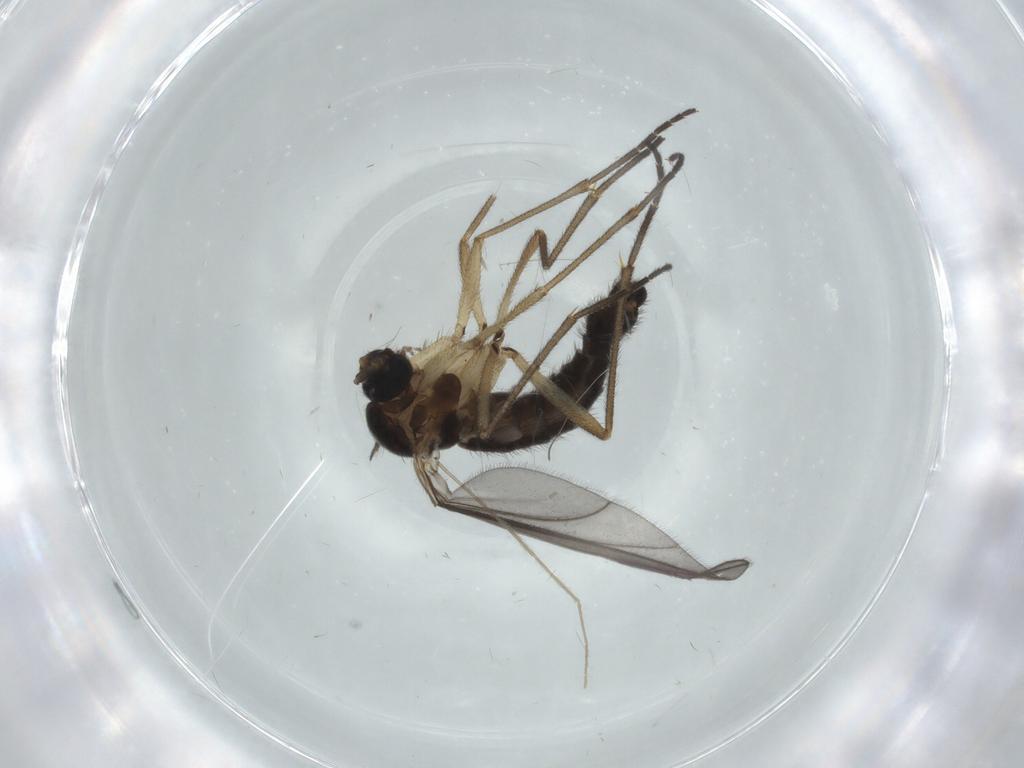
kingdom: Animalia
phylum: Arthropoda
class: Insecta
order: Diptera
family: Sciaridae
